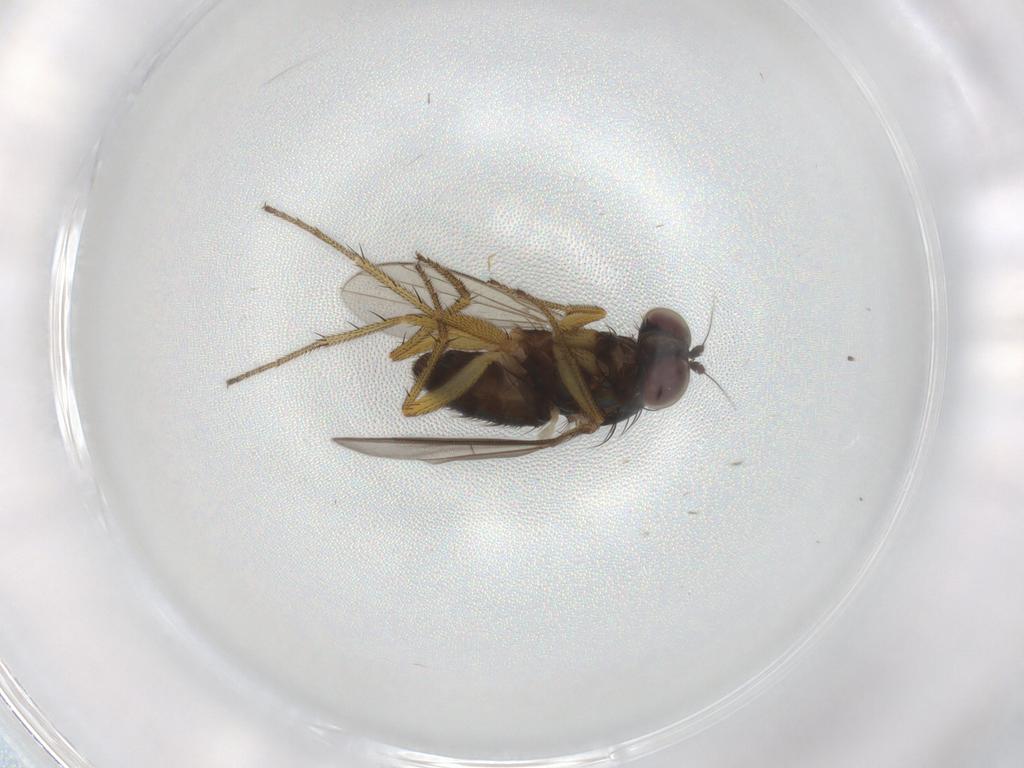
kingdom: Animalia
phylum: Arthropoda
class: Insecta
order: Diptera
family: Dolichopodidae
